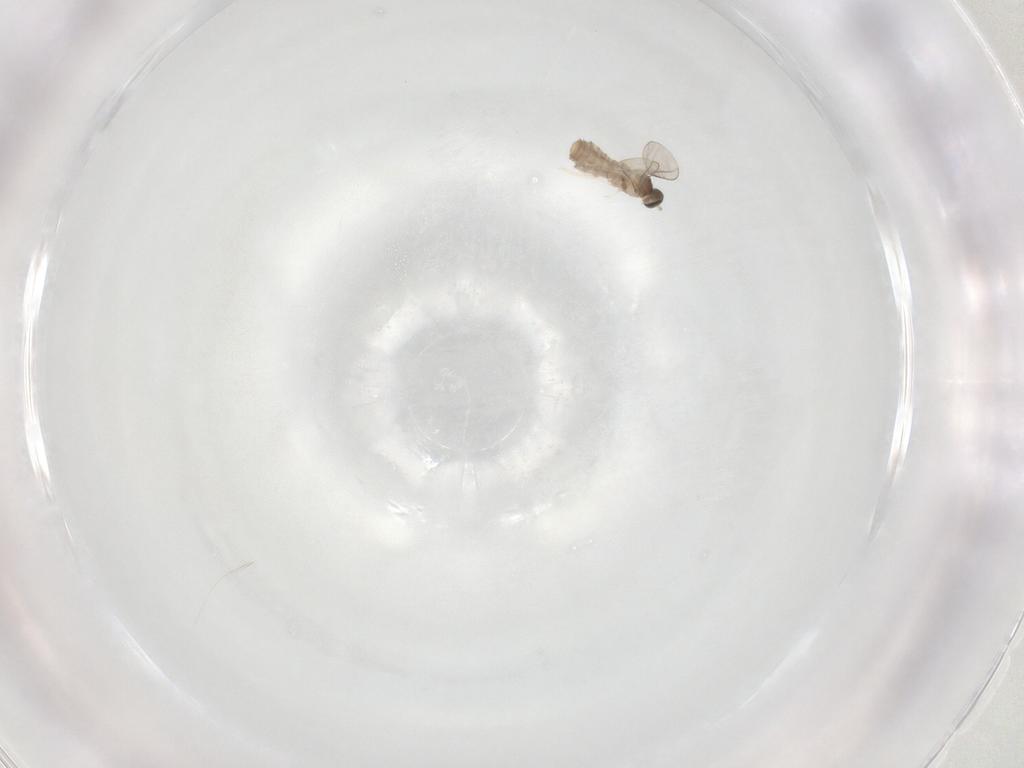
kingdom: Animalia
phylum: Arthropoda
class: Insecta
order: Diptera
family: Cecidomyiidae
